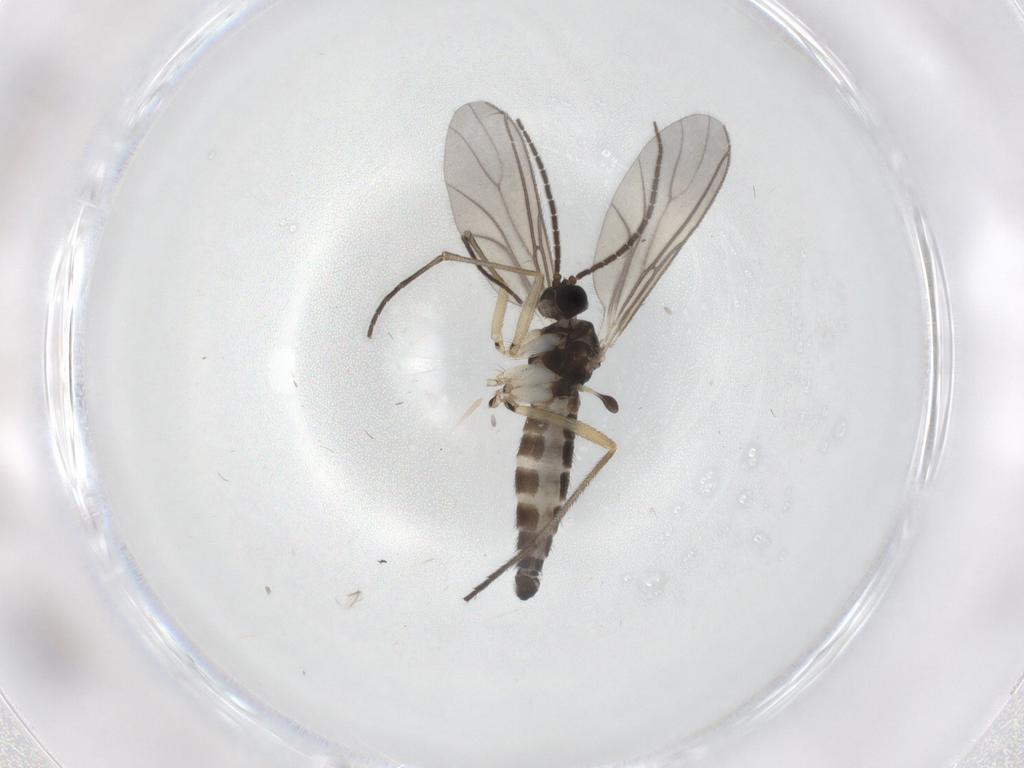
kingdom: Animalia
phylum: Arthropoda
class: Insecta
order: Diptera
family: Sciaridae
